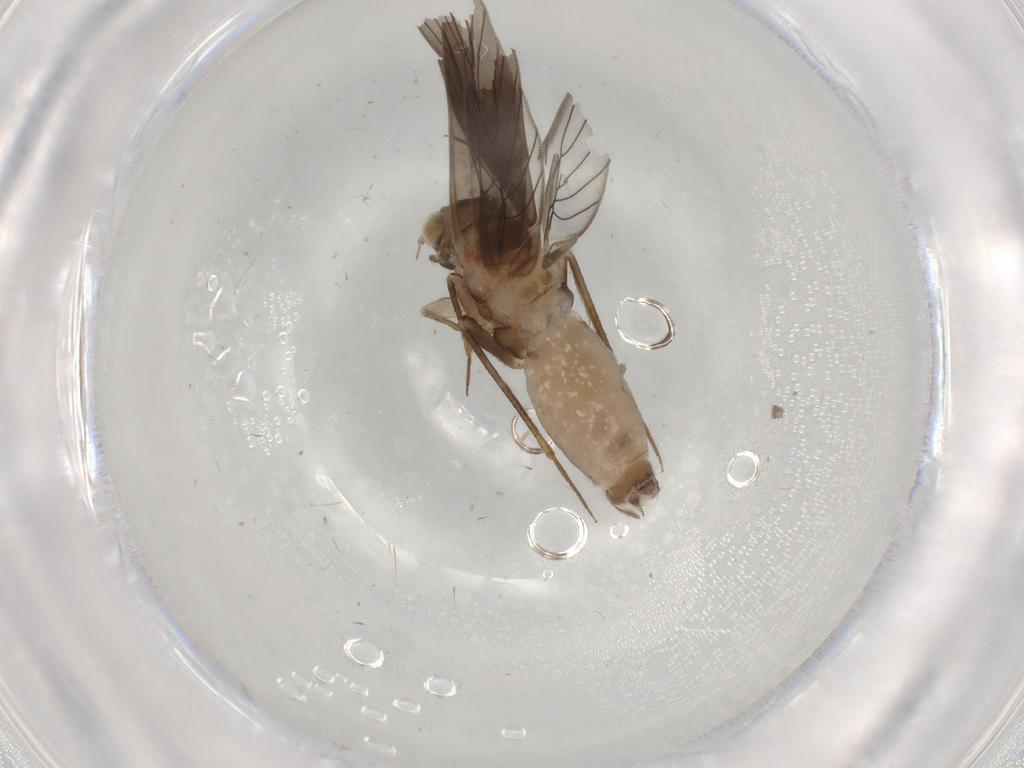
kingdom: Animalia
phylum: Arthropoda
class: Insecta
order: Psocodea
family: Lepidopsocidae
